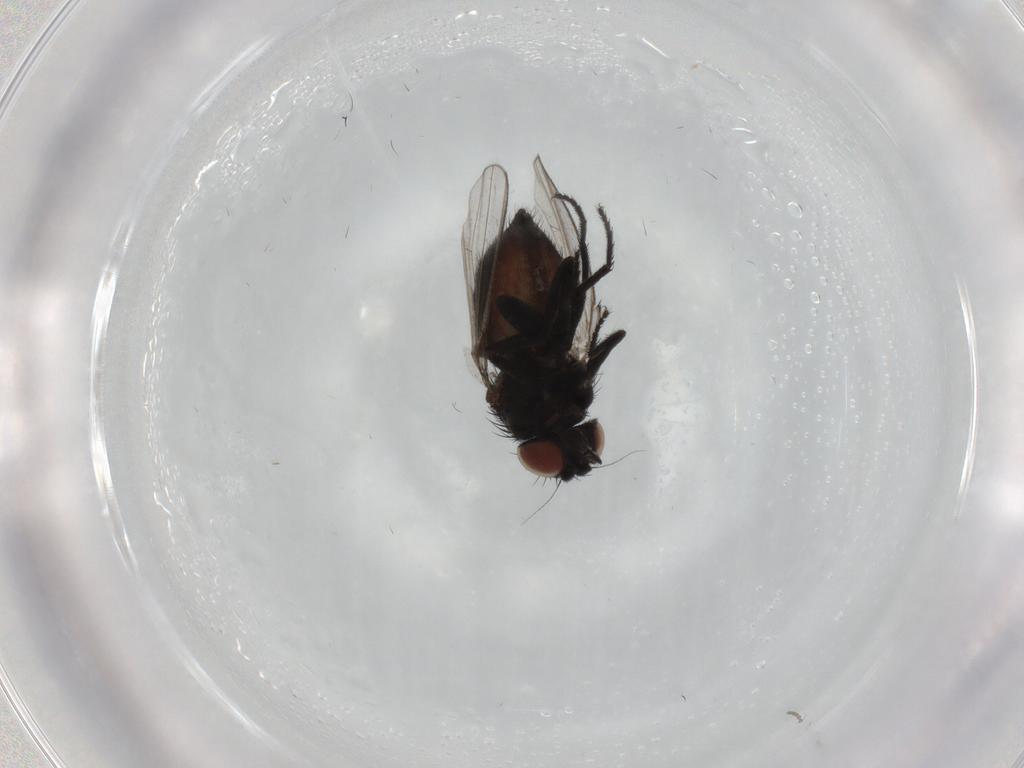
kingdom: Animalia
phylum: Arthropoda
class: Insecta
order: Diptera
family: Milichiidae
